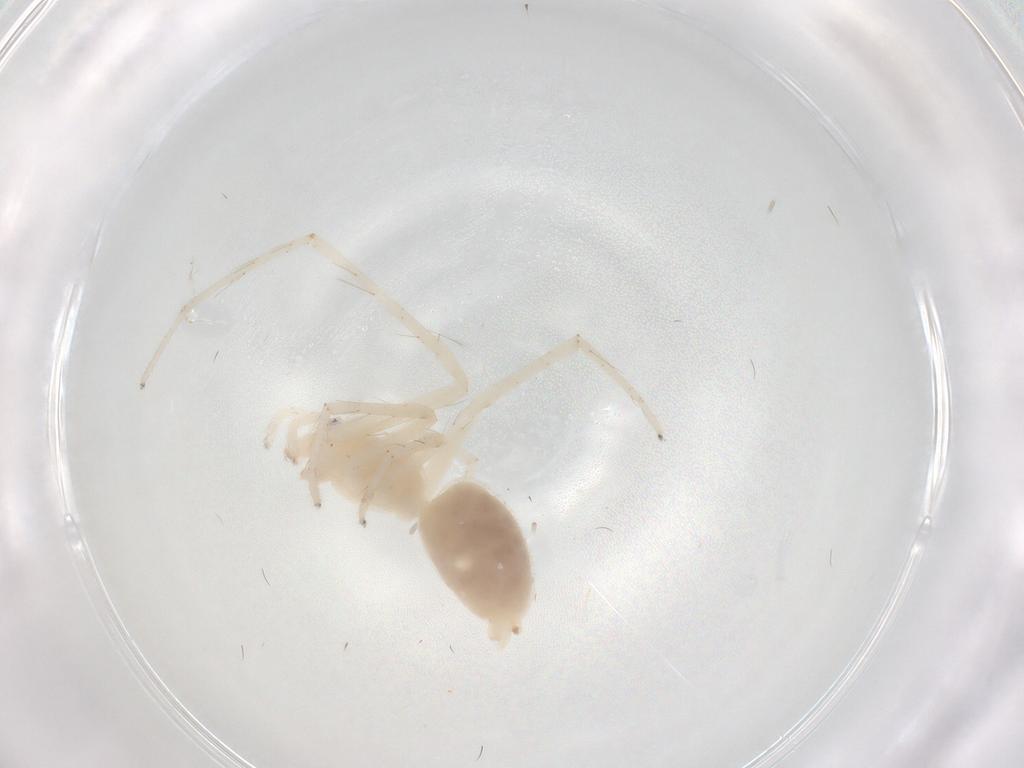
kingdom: Animalia
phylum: Arthropoda
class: Arachnida
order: Araneae
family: Anyphaenidae
